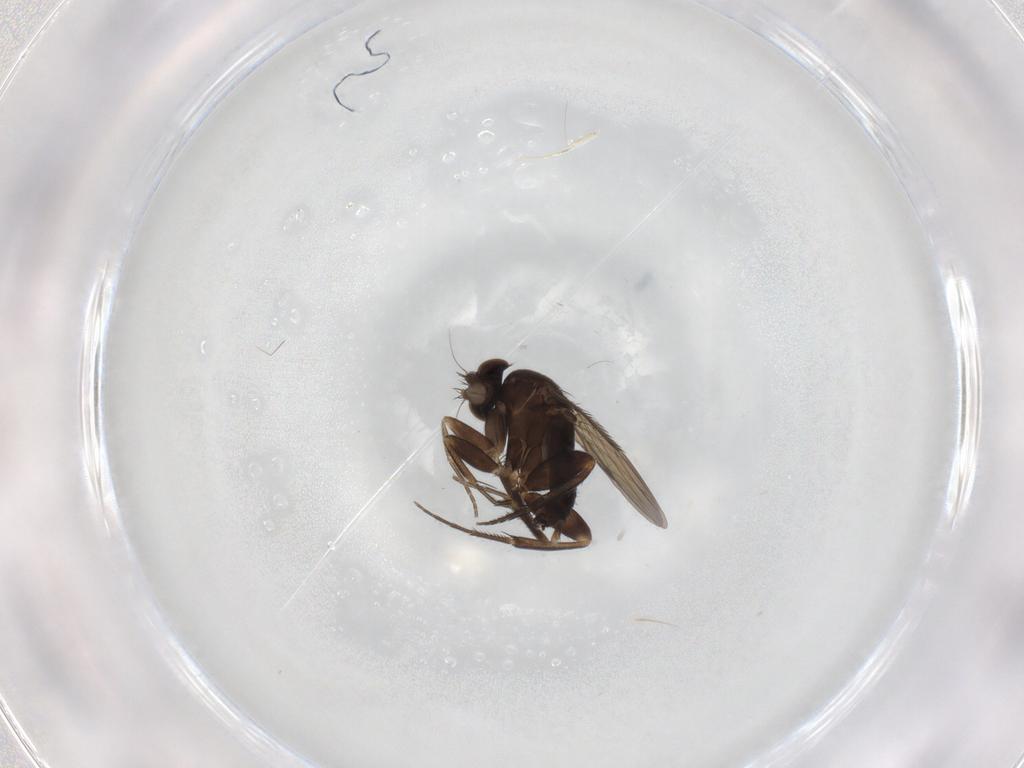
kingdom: Animalia
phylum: Arthropoda
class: Insecta
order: Diptera
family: Phoridae
